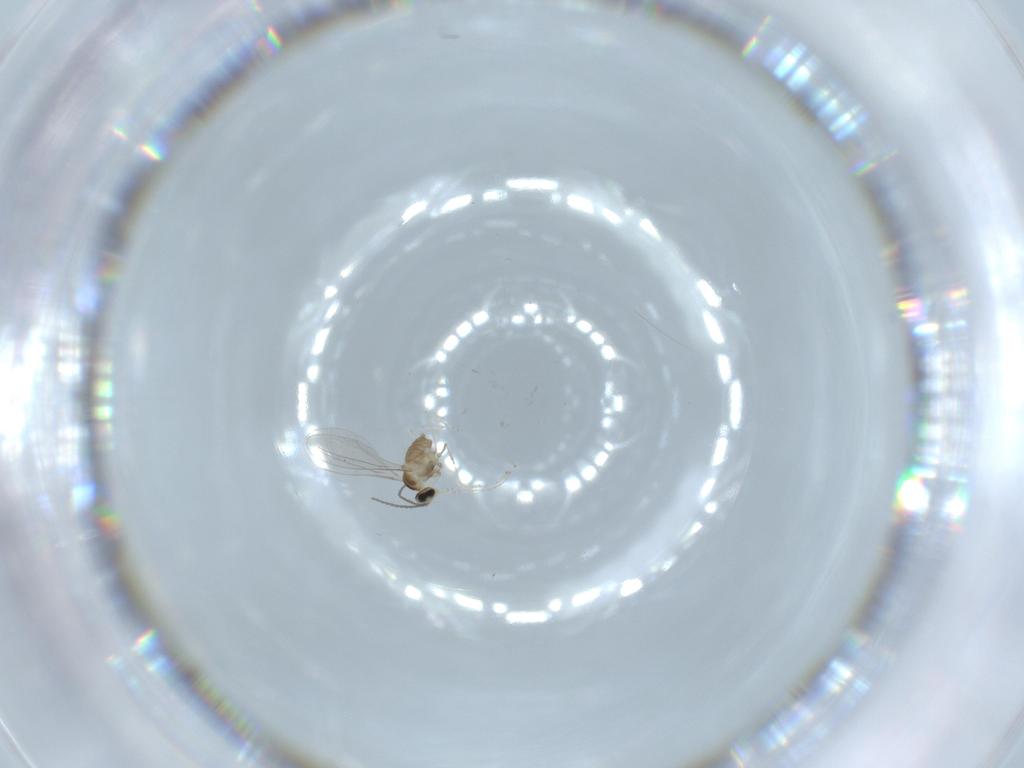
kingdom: Animalia
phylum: Arthropoda
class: Insecta
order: Diptera
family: Cecidomyiidae
